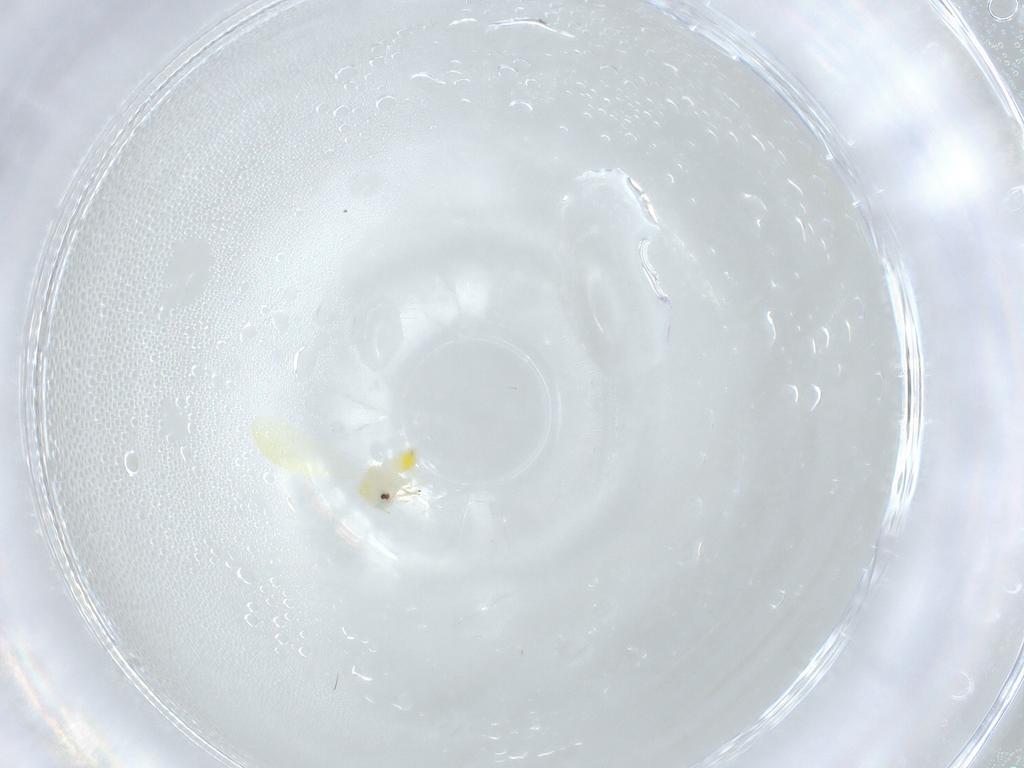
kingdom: Animalia
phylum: Arthropoda
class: Insecta
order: Hemiptera
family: Aleyrodidae
